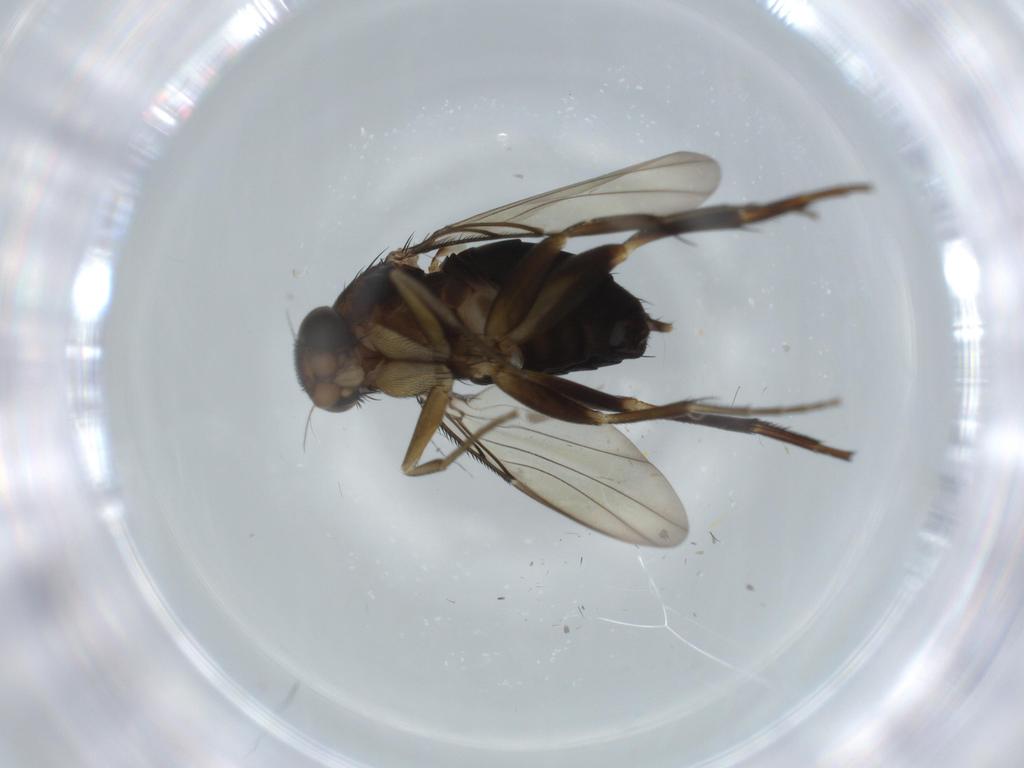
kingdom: Animalia
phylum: Arthropoda
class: Insecta
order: Diptera
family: Phoridae
